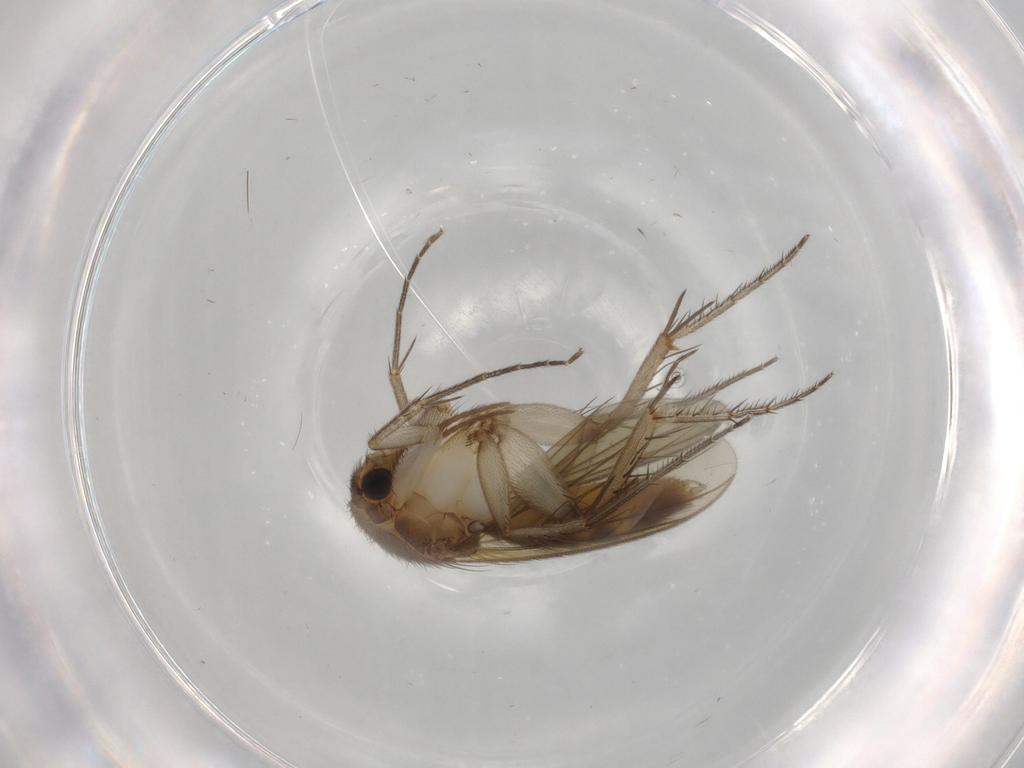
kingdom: Animalia
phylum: Arthropoda
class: Insecta
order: Diptera
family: Mycetophilidae
